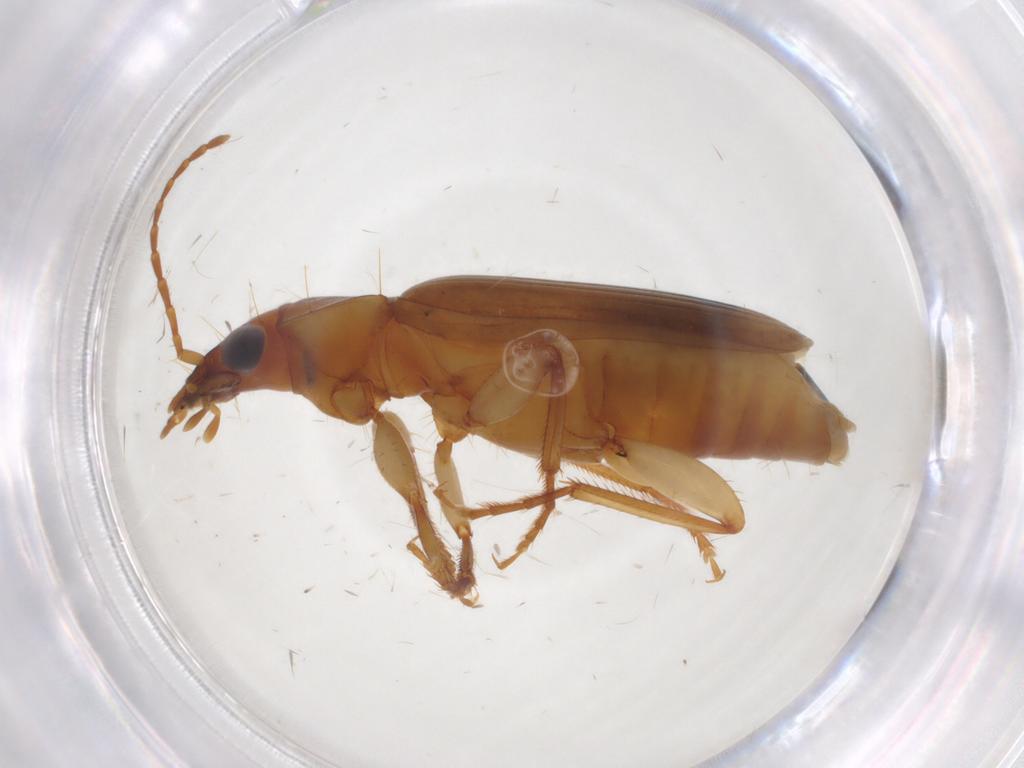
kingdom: Animalia
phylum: Arthropoda
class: Insecta
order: Coleoptera
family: Carabidae
